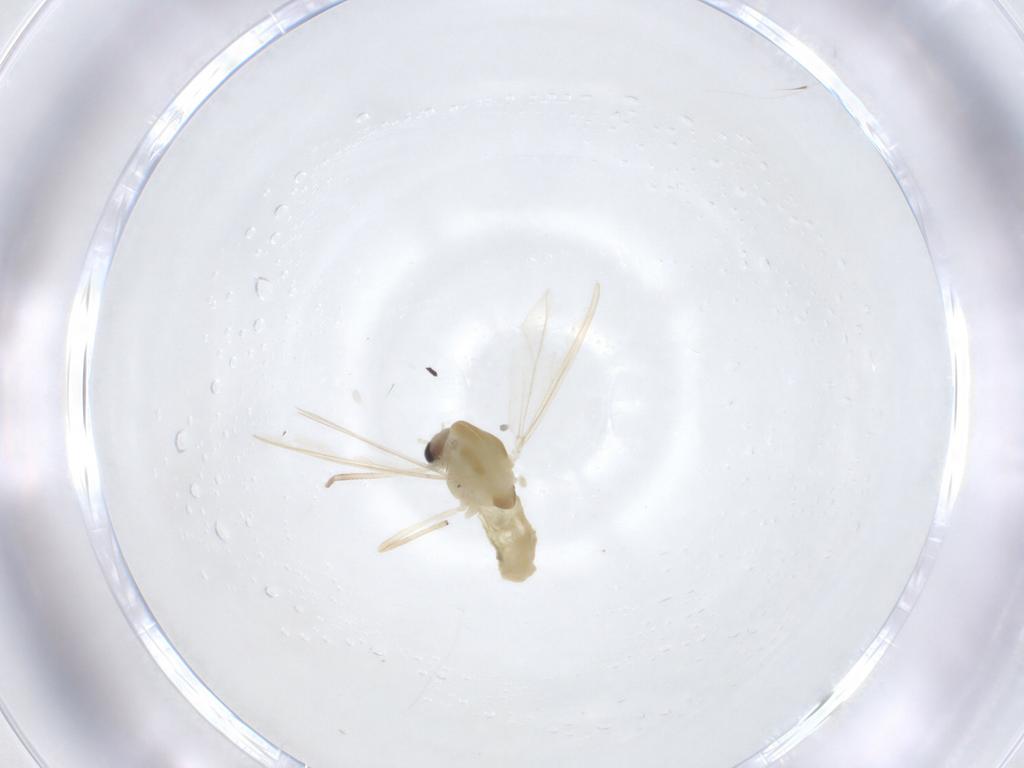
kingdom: Animalia
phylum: Arthropoda
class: Insecta
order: Diptera
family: Chironomidae
